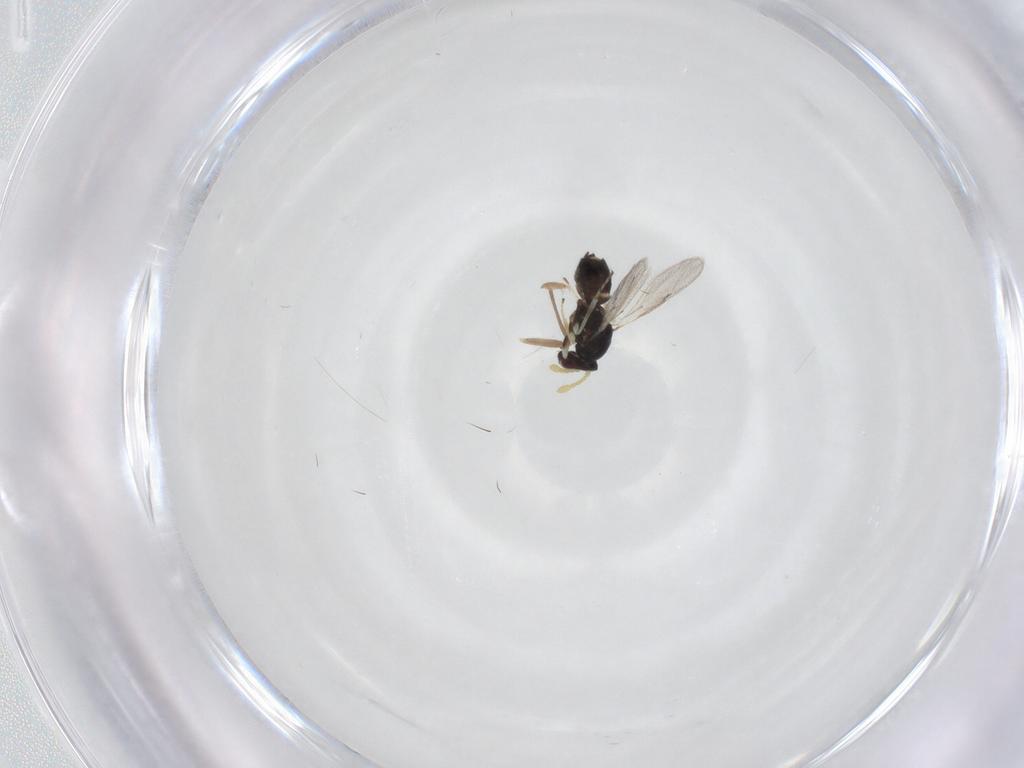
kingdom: Animalia
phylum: Arthropoda
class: Insecta
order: Hymenoptera
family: Eulophidae
